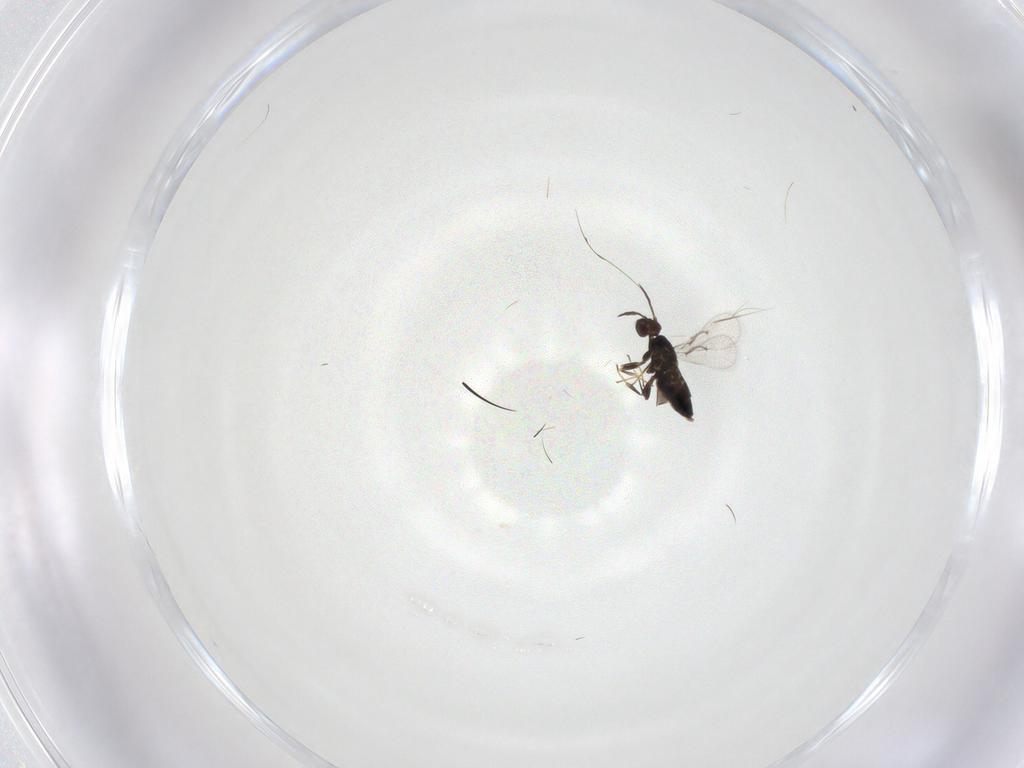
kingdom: Animalia
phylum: Arthropoda
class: Insecta
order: Hymenoptera
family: Trichogrammatidae
